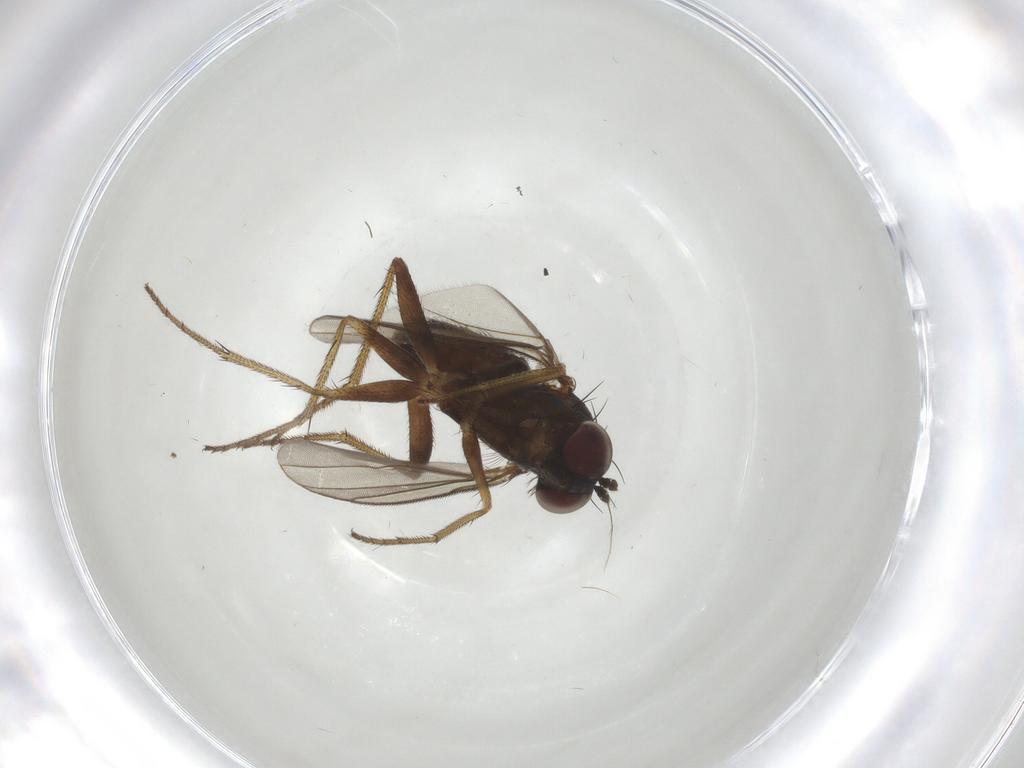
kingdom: Animalia
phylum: Arthropoda
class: Insecta
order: Diptera
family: Dolichopodidae
